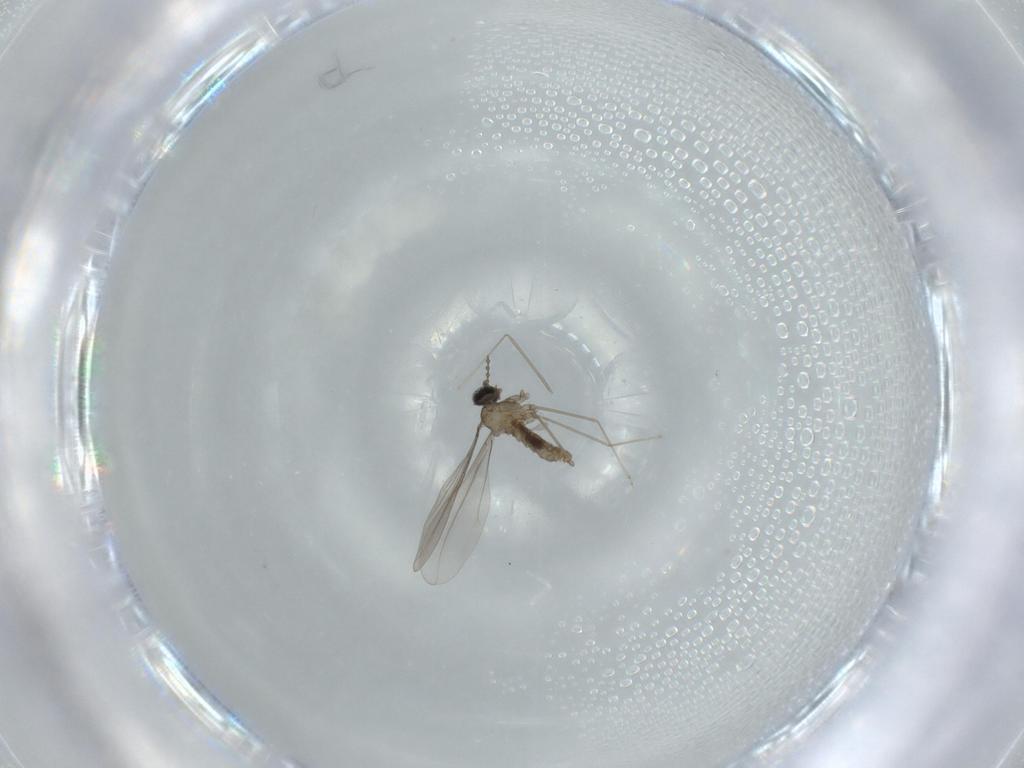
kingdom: Animalia
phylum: Arthropoda
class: Insecta
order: Diptera
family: Cecidomyiidae
